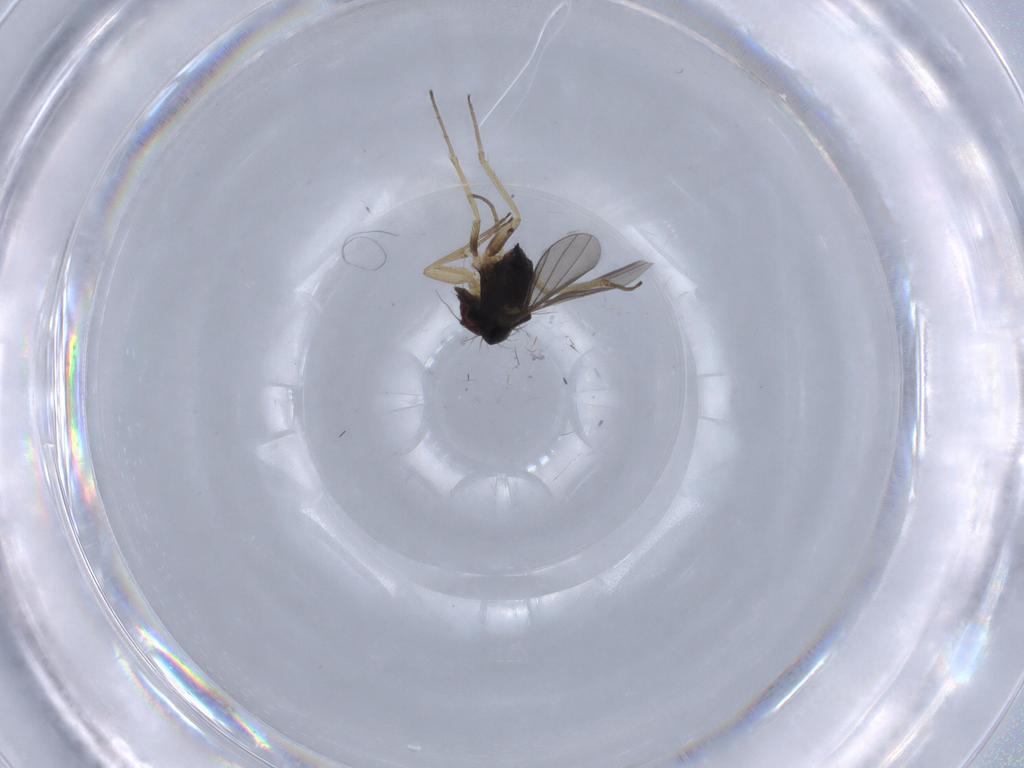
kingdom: Animalia
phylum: Arthropoda
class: Insecta
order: Diptera
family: Dolichopodidae
